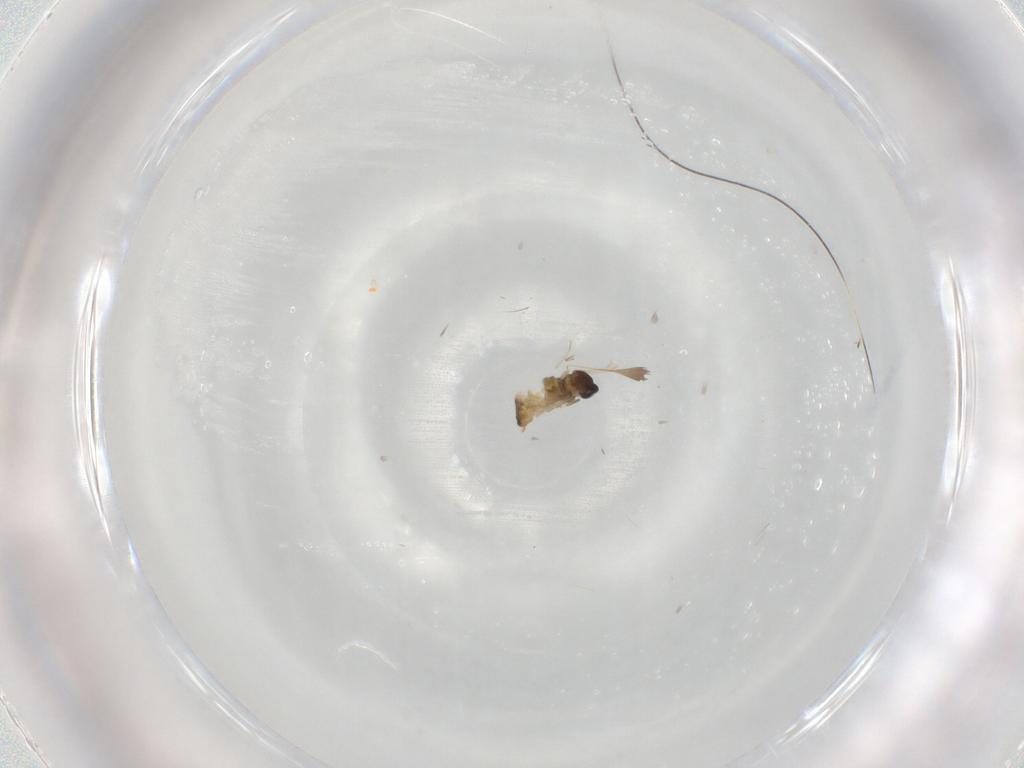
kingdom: Animalia
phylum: Arthropoda
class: Insecta
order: Diptera
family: Cecidomyiidae
